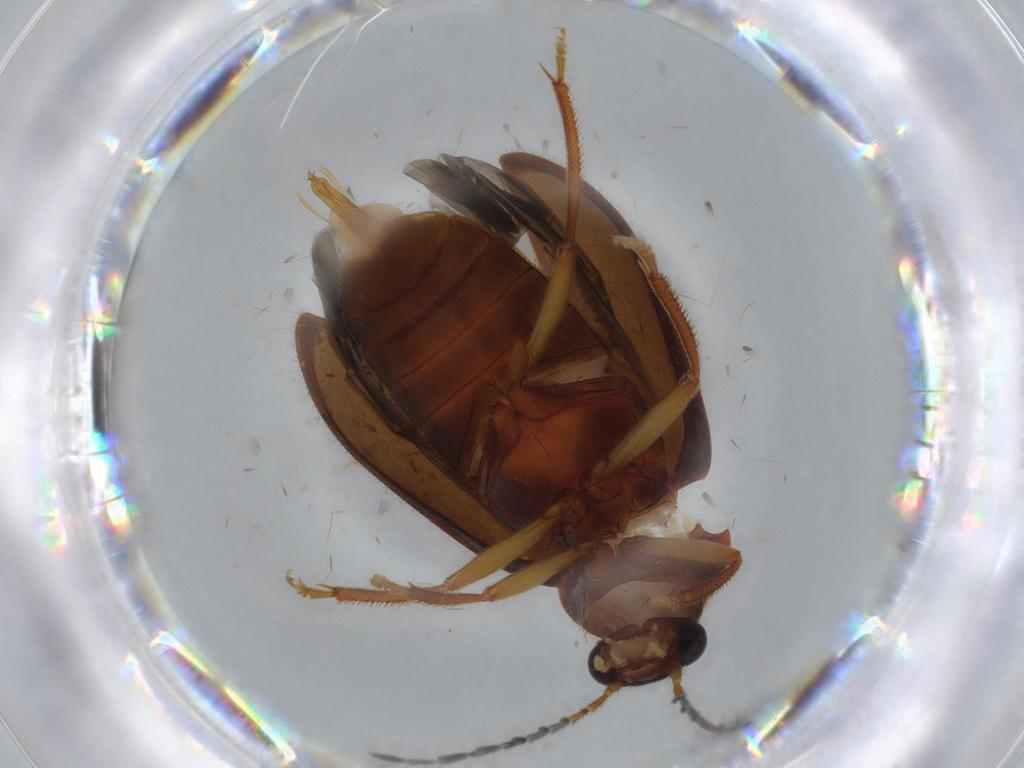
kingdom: Animalia
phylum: Arthropoda
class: Insecta
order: Coleoptera
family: Ptilodactylidae
